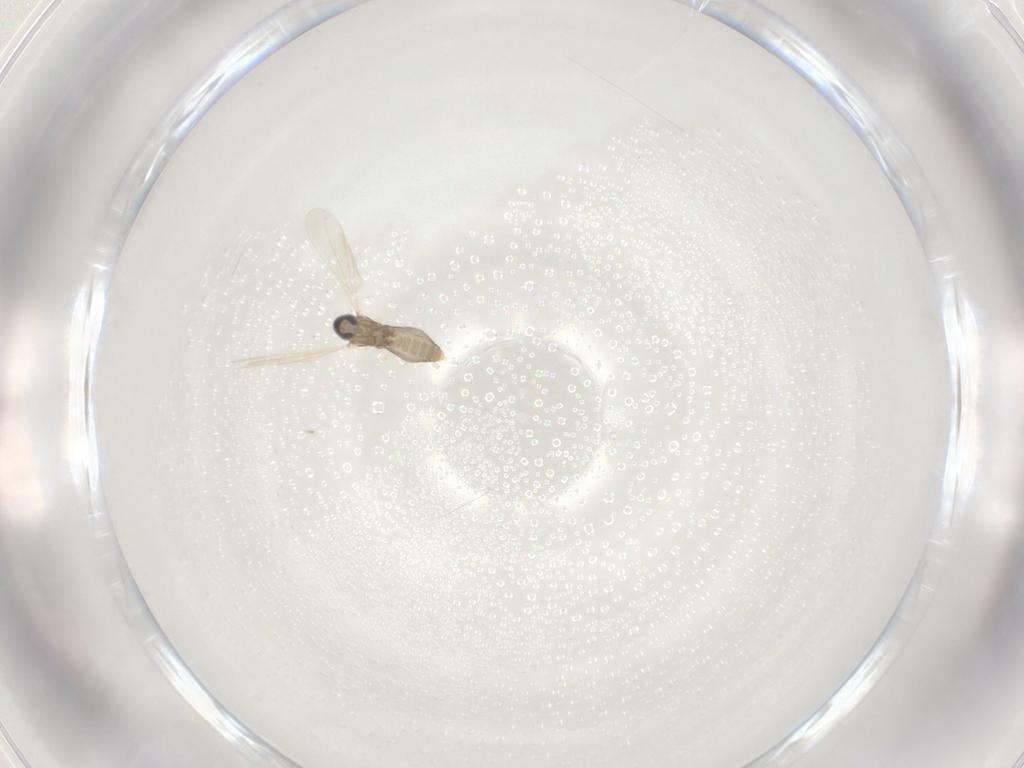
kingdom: Animalia
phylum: Arthropoda
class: Insecta
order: Diptera
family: Cecidomyiidae
